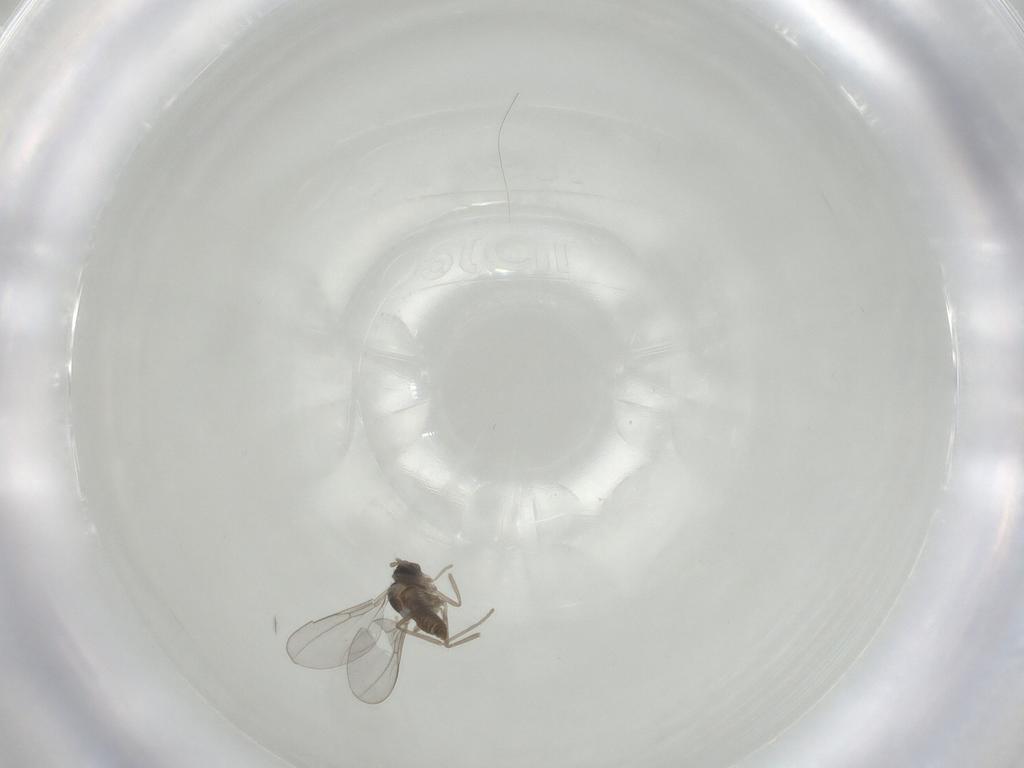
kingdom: Animalia
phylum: Arthropoda
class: Insecta
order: Diptera
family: Cecidomyiidae
